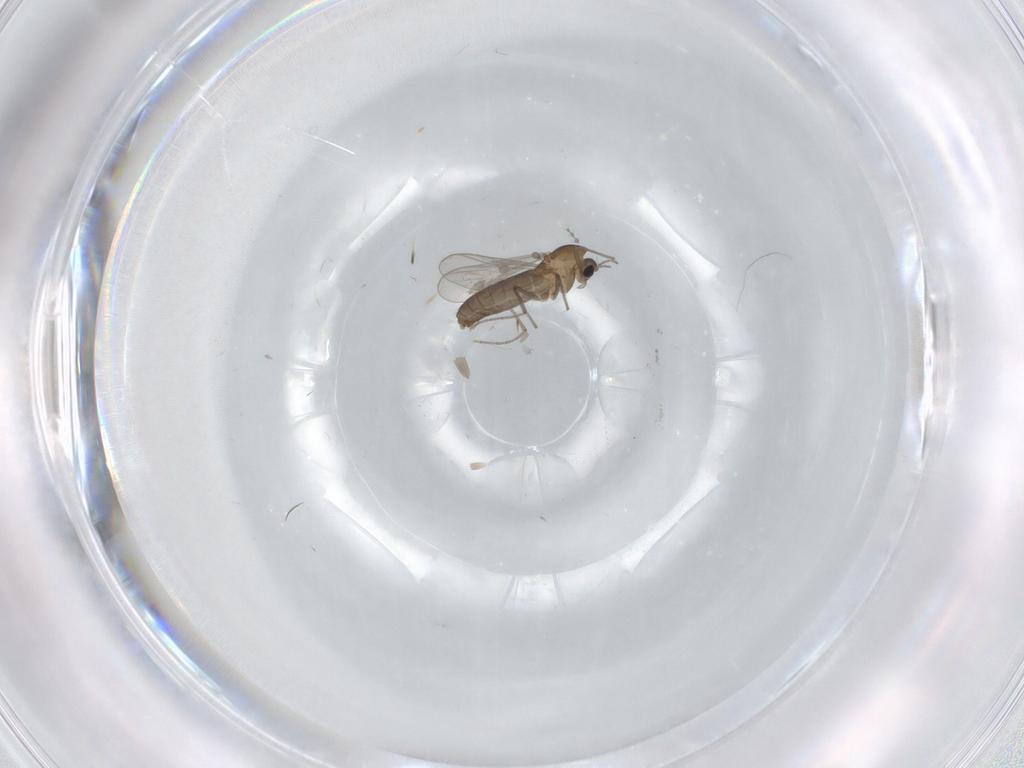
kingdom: Animalia
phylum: Arthropoda
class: Insecta
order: Diptera
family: Chironomidae
